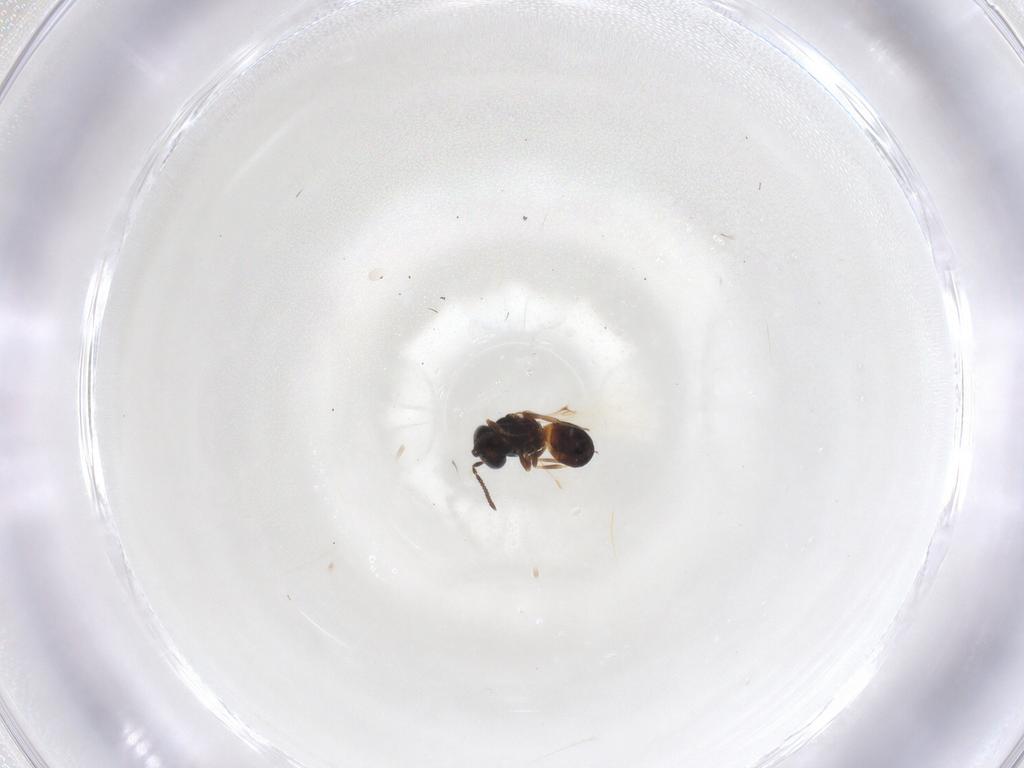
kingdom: Animalia
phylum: Arthropoda
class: Insecta
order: Hymenoptera
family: Scelionidae
